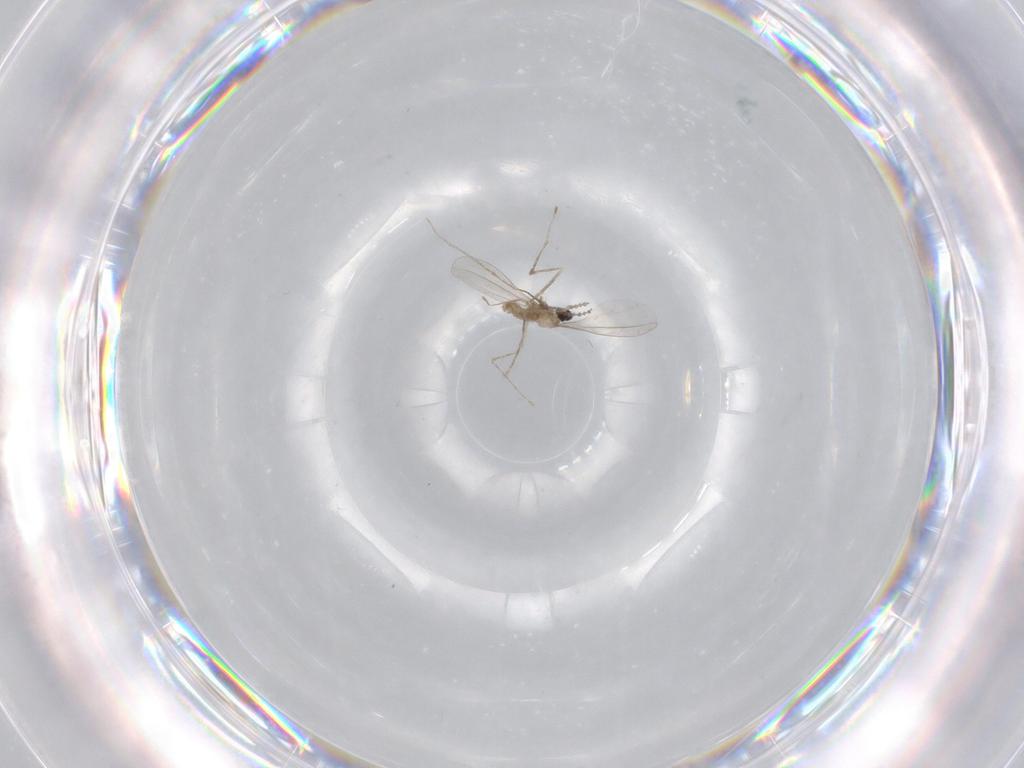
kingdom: Animalia
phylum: Arthropoda
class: Insecta
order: Diptera
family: Cecidomyiidae
